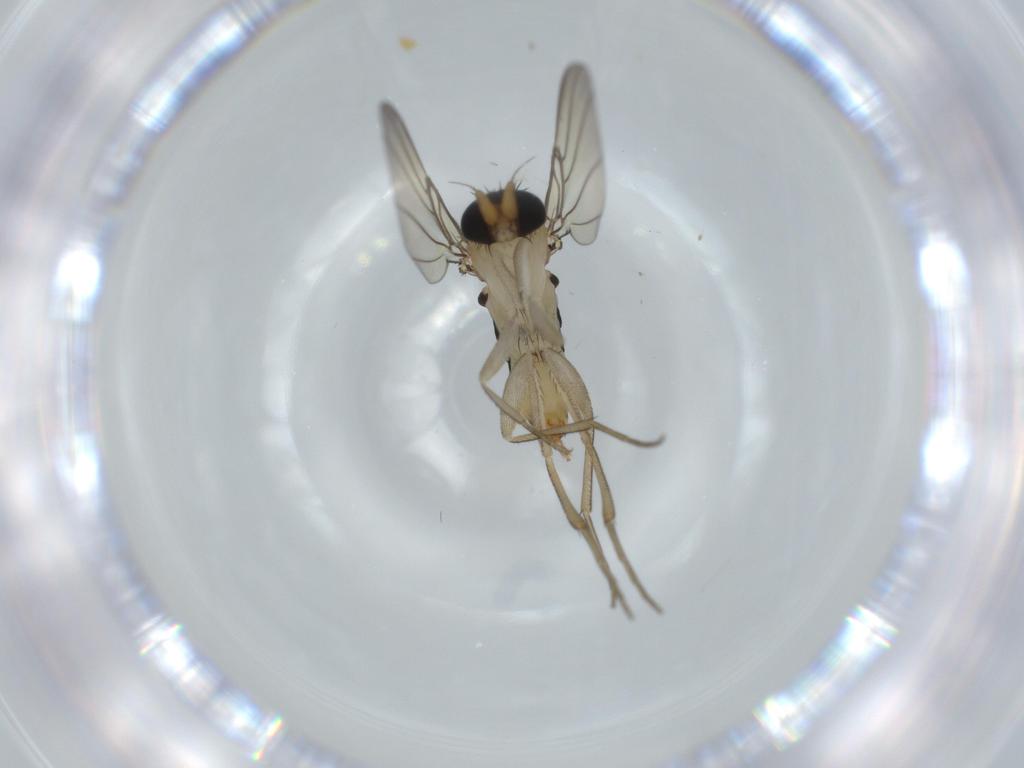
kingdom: Animalia
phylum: Arthropoda
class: Insecta
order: Diptera
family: Phoridae
